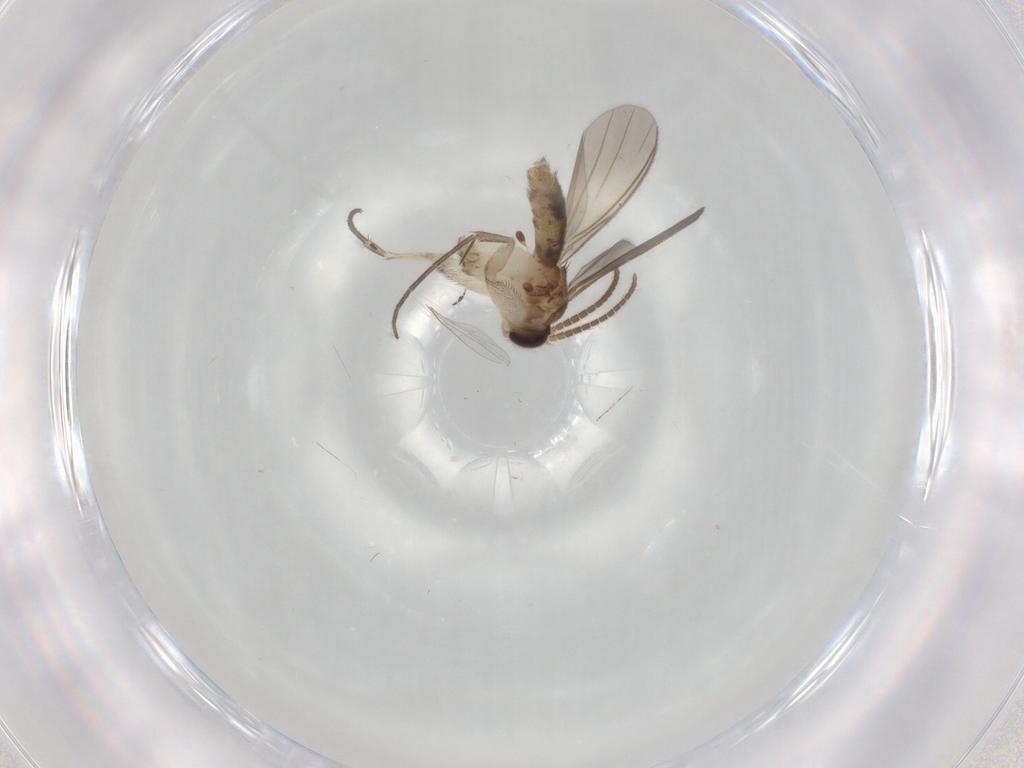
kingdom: Animalia
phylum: Arthropoda
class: Insecta
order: Diptera
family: Mycetophilidae
